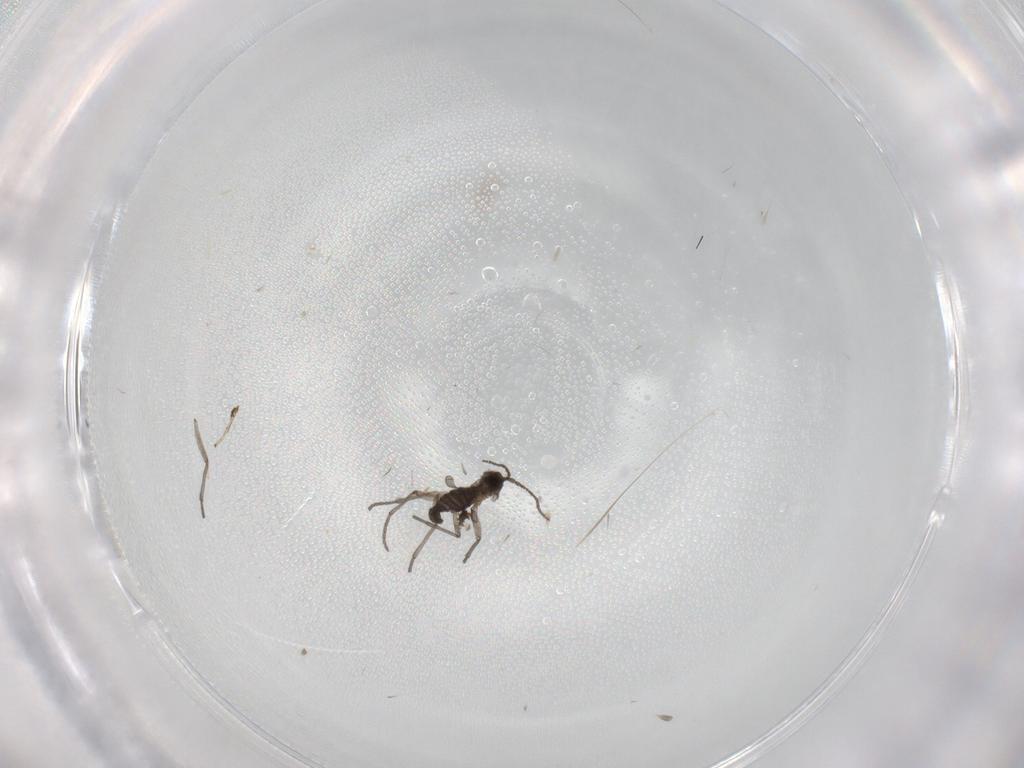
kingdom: Animalia
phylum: Arthropoda
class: Insecta
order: Diptera
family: Sciaridae
